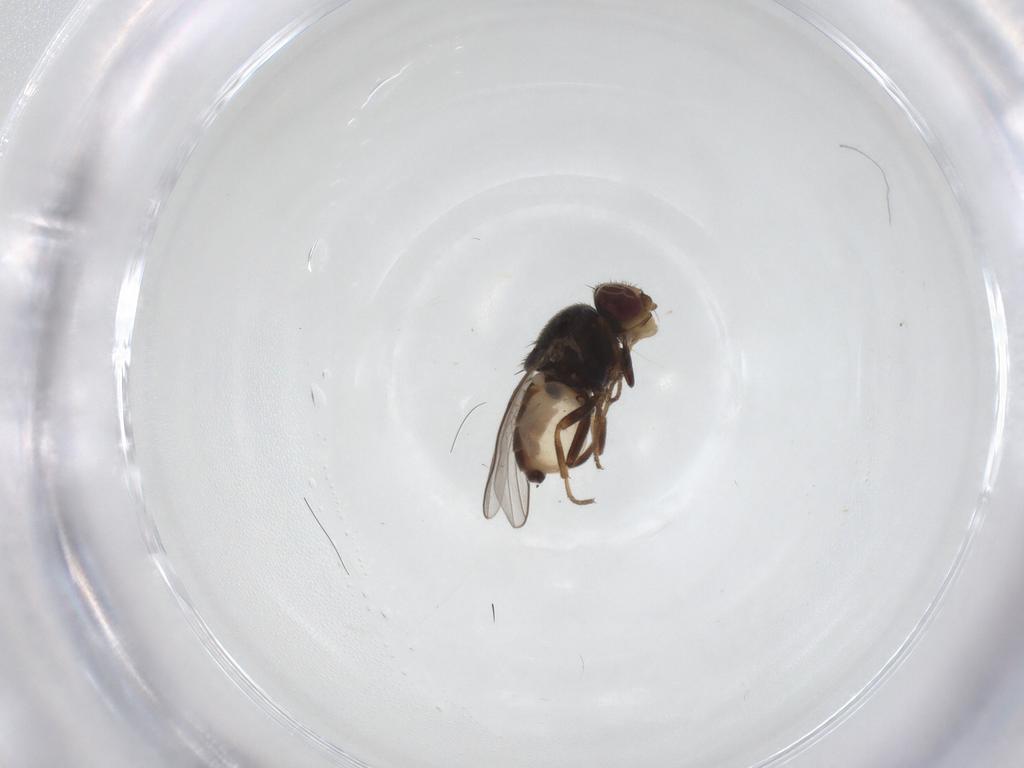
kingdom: Animalia
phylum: Arthropoda
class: Insecta
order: Diptera
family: Chloropidae
